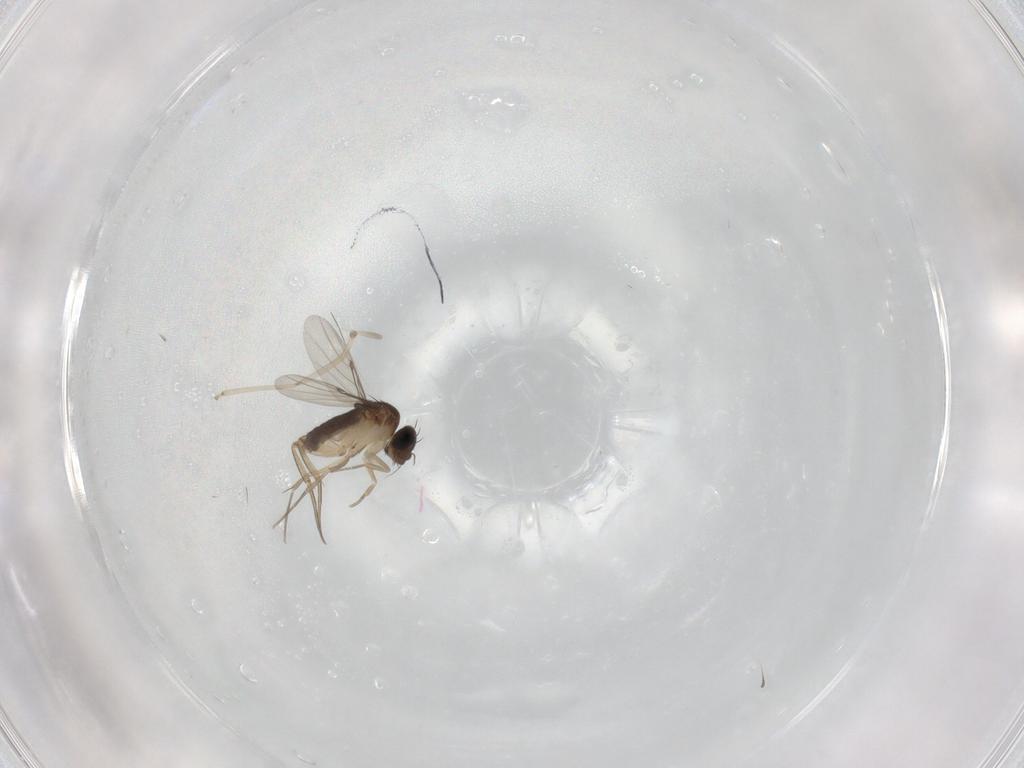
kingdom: Animalia
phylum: Arthropoda
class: Insecta
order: Diptera
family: Phoridae
